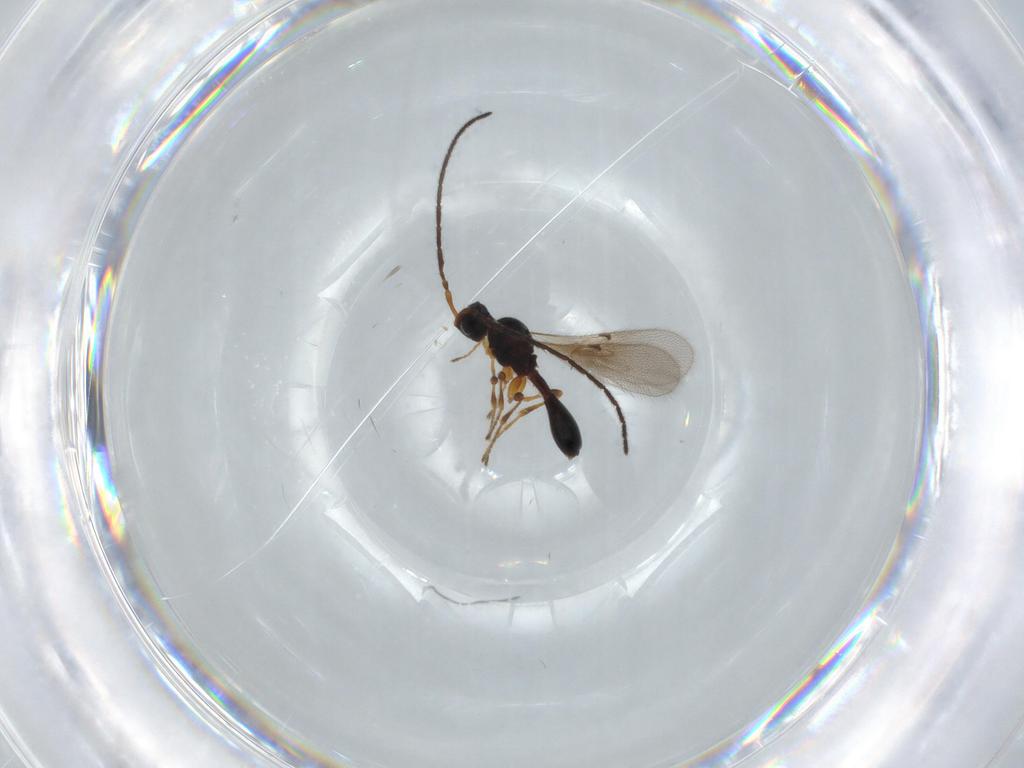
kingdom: Animalia
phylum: Arthropoda
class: Insecta
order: Hymenoptera
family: Diapriidae
